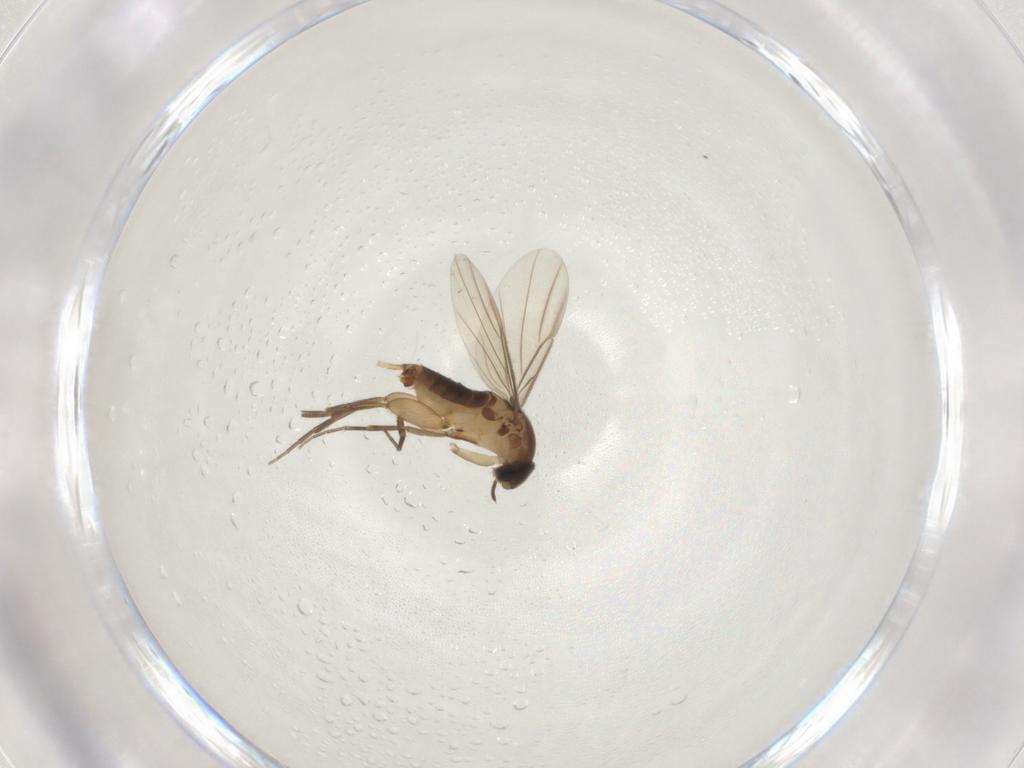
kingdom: Animalia
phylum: Arthropoda
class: Insecta
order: Diptera
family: Phoridae
